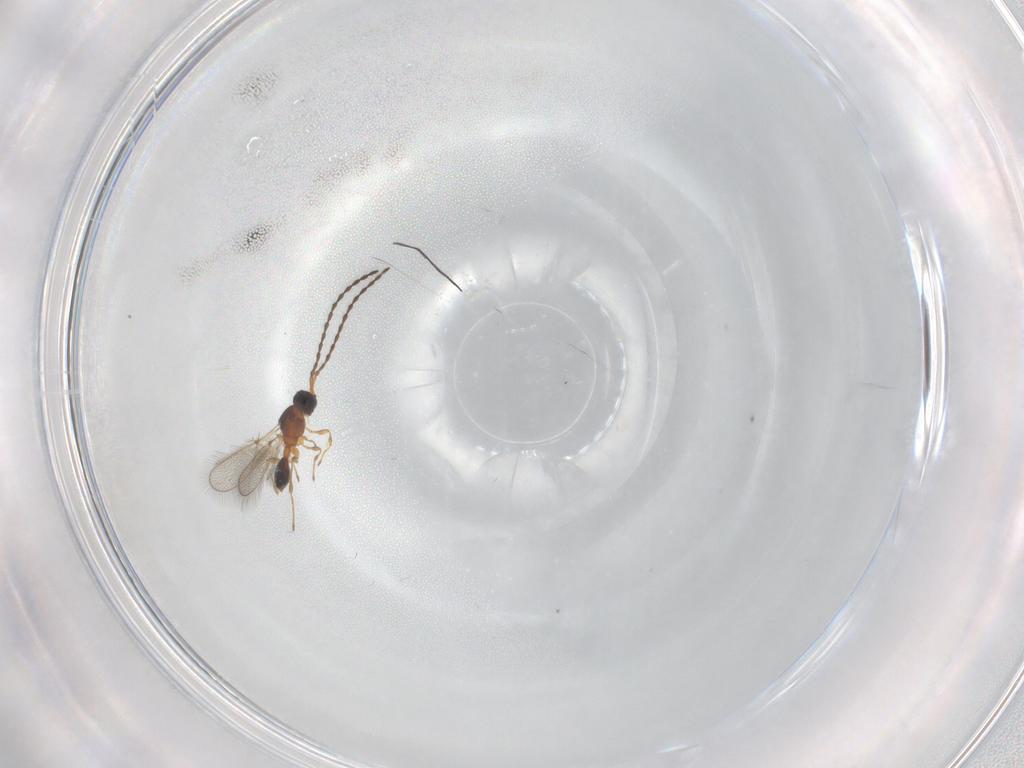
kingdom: Animalia
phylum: Arthropoda
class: Insecta
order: Hymenoptera
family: Diapriidae
